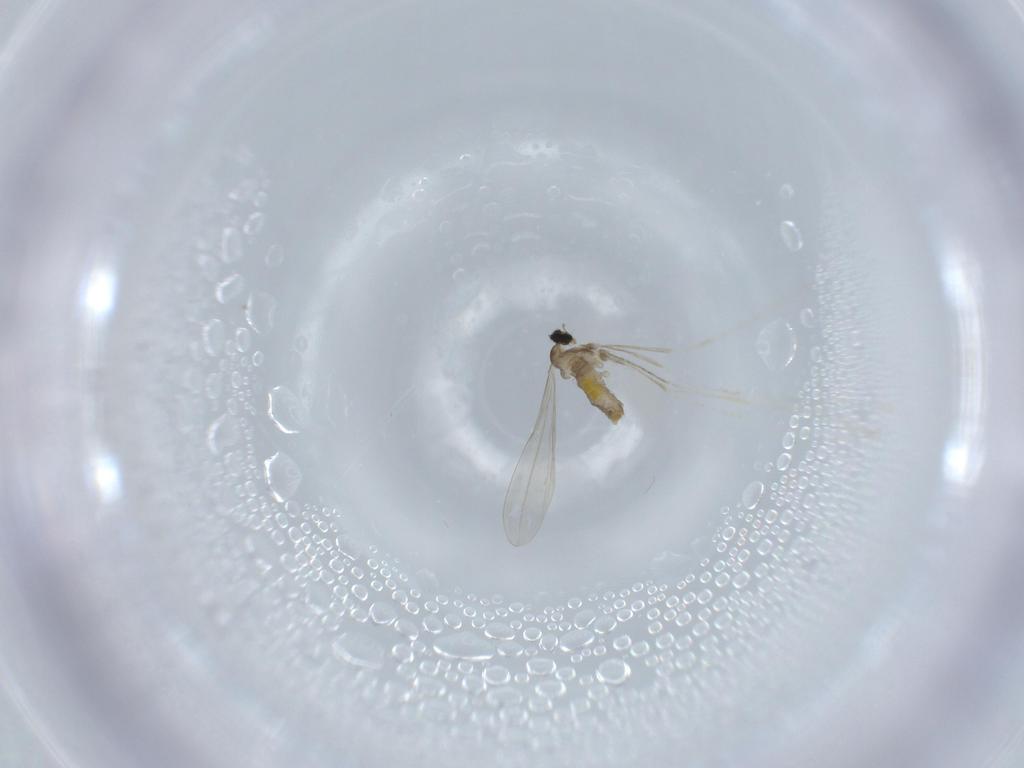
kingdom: Animalia
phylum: Arthropoda
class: Insecta
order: Diptera
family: Cecidomyiidae
